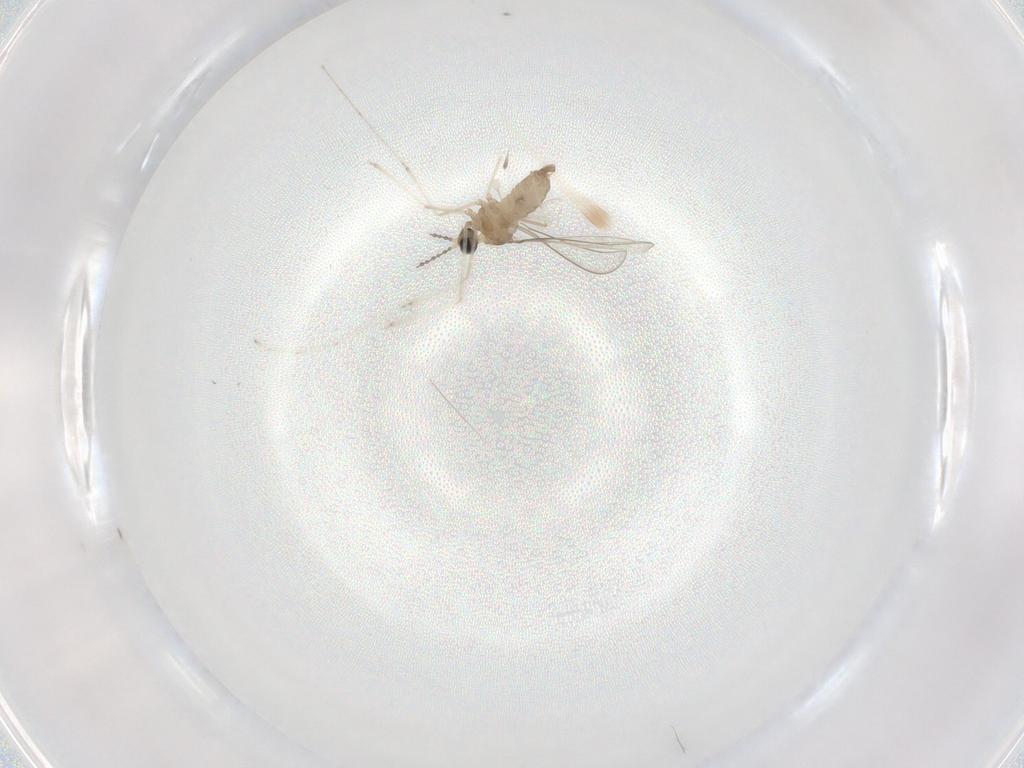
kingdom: Animalia
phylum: Arthropoda
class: Insecta
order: Diptera
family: Cecidomyiidae
